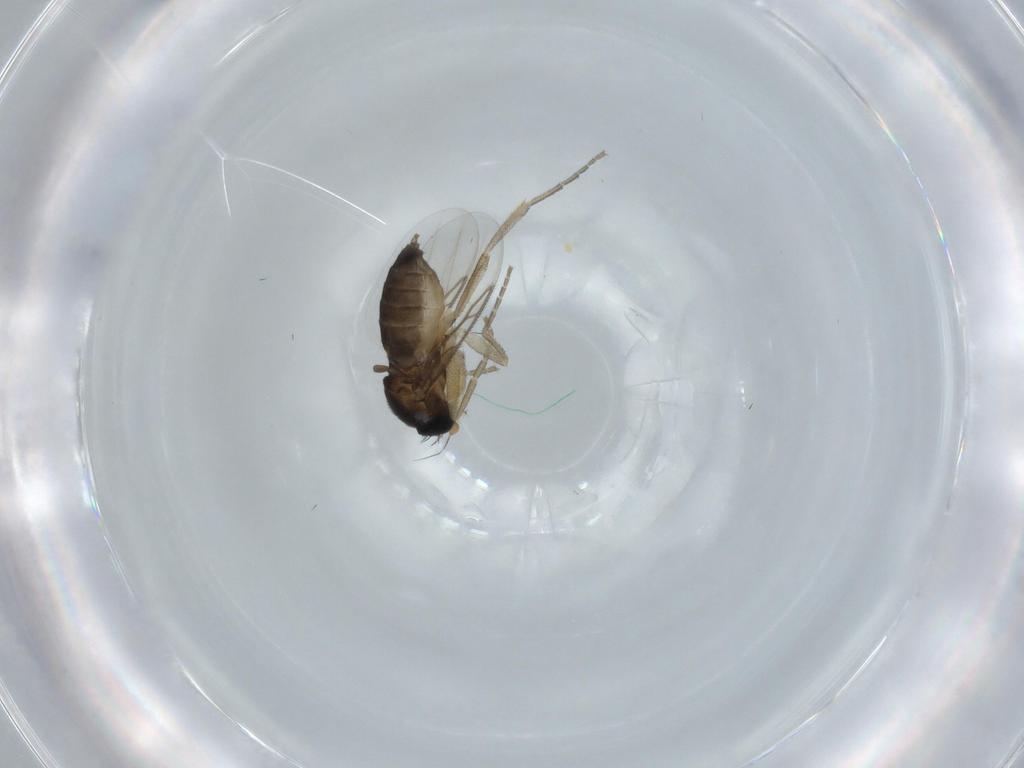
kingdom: Animalia
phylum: Arthropoda
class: Insecta
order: Diptera
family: Phoridae
